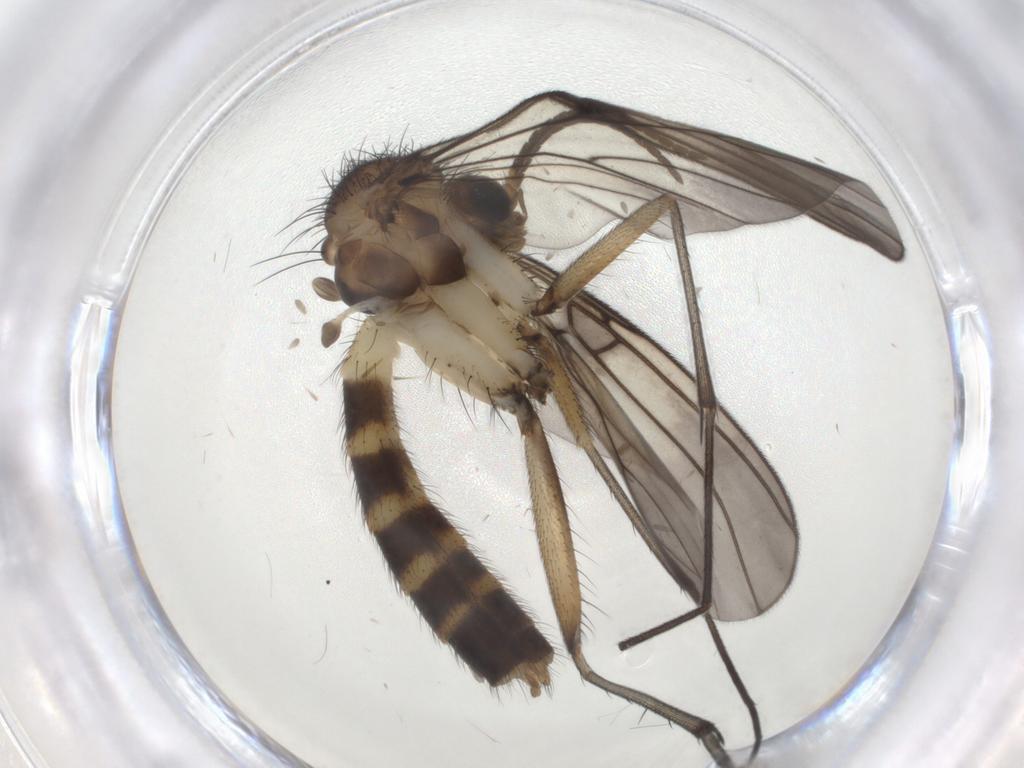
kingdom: Animalia
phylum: Arthropoda
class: Insecta
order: Diptera
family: Mycetophilidae
